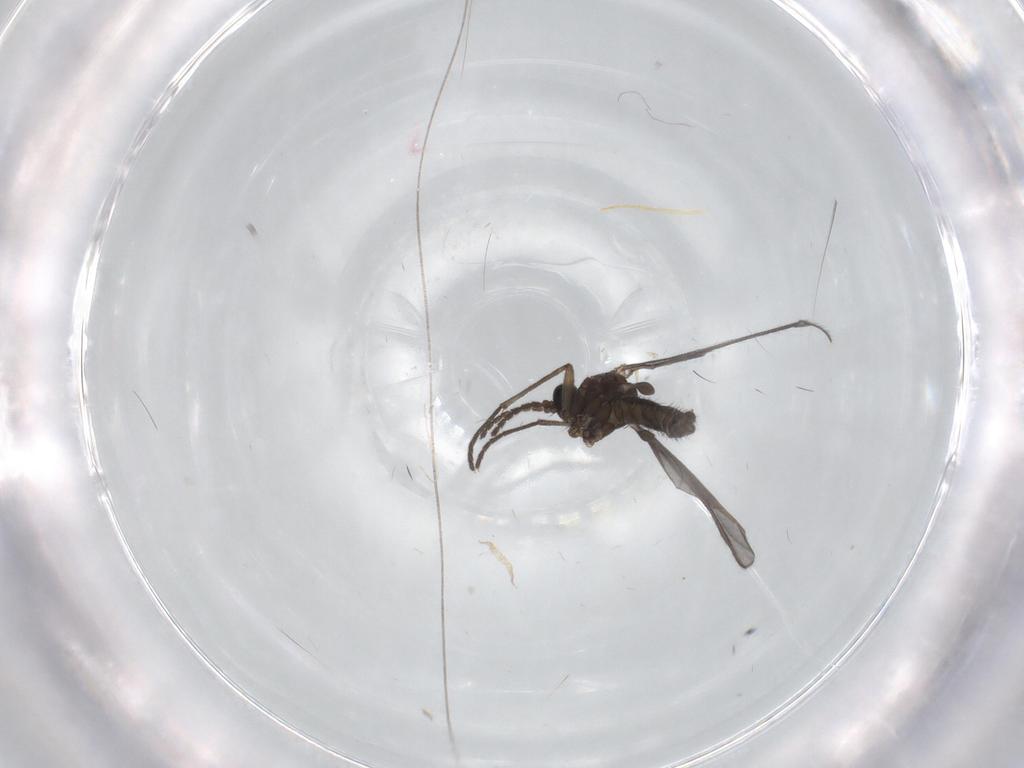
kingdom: Animalia
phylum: Arthropoda
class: Insecta
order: Diptera
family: Sciaridae
